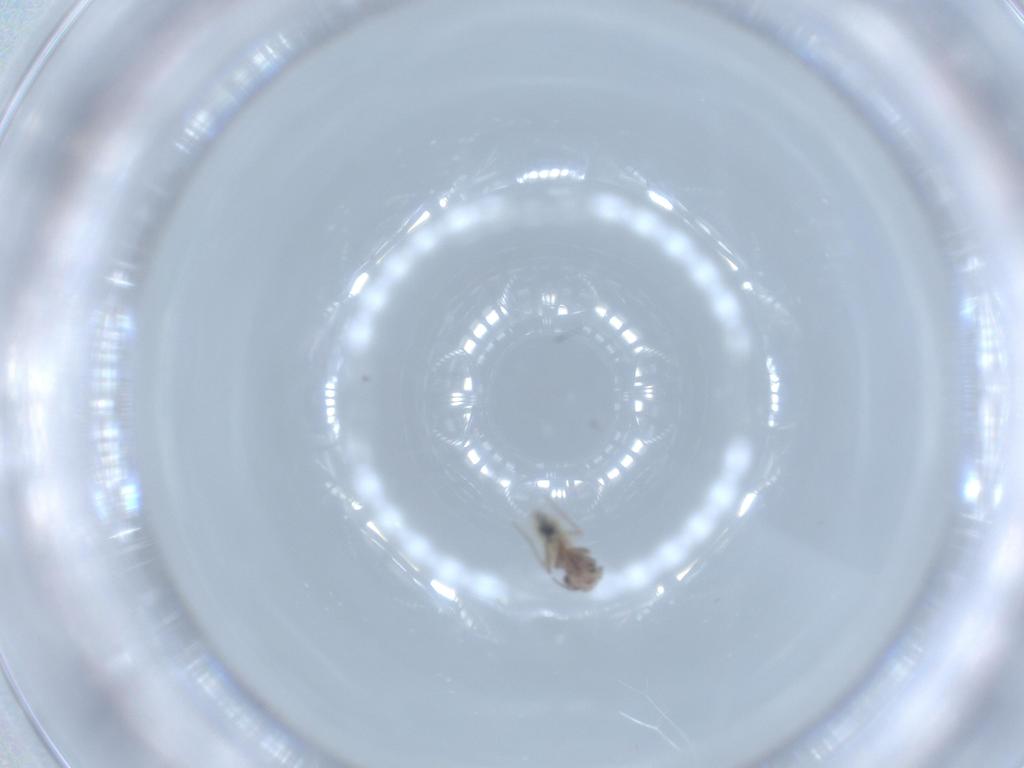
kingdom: Animalia
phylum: Arthropoda
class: Insecta
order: Psocodea
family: Lepidopsocidae
